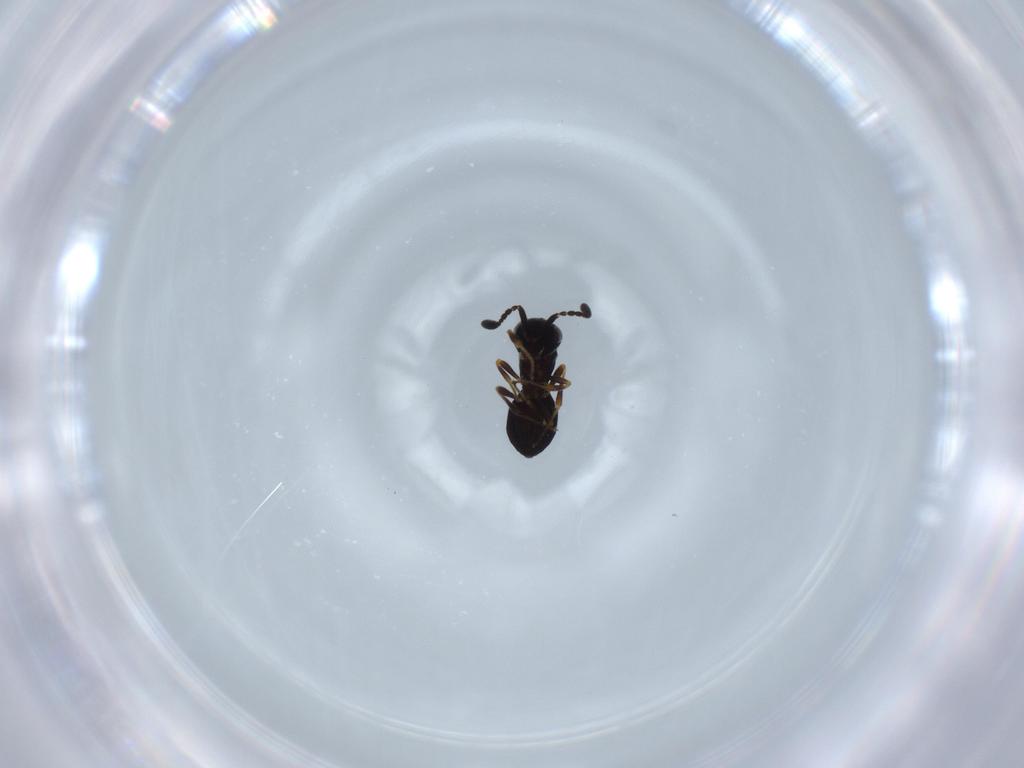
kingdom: Animalia
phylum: Arthropoda
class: Insecta
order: Hymenoptera
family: Scelionidae
